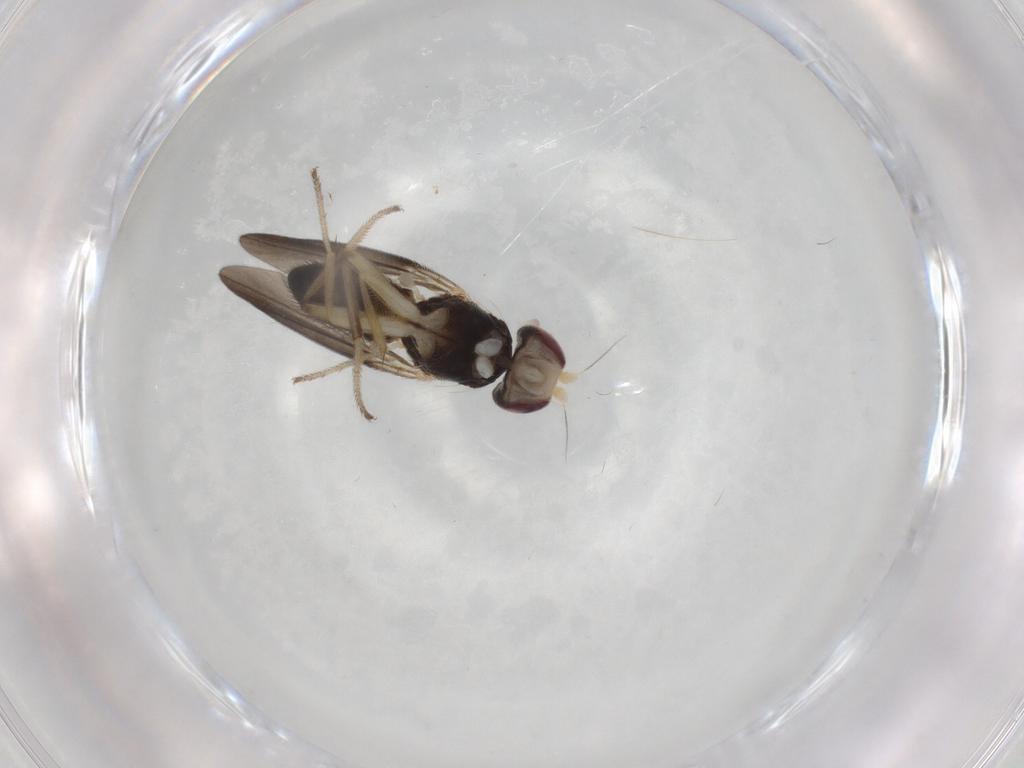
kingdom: Animalia
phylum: Arthropoda
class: Insecta
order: Diptera
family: Clusiidae
